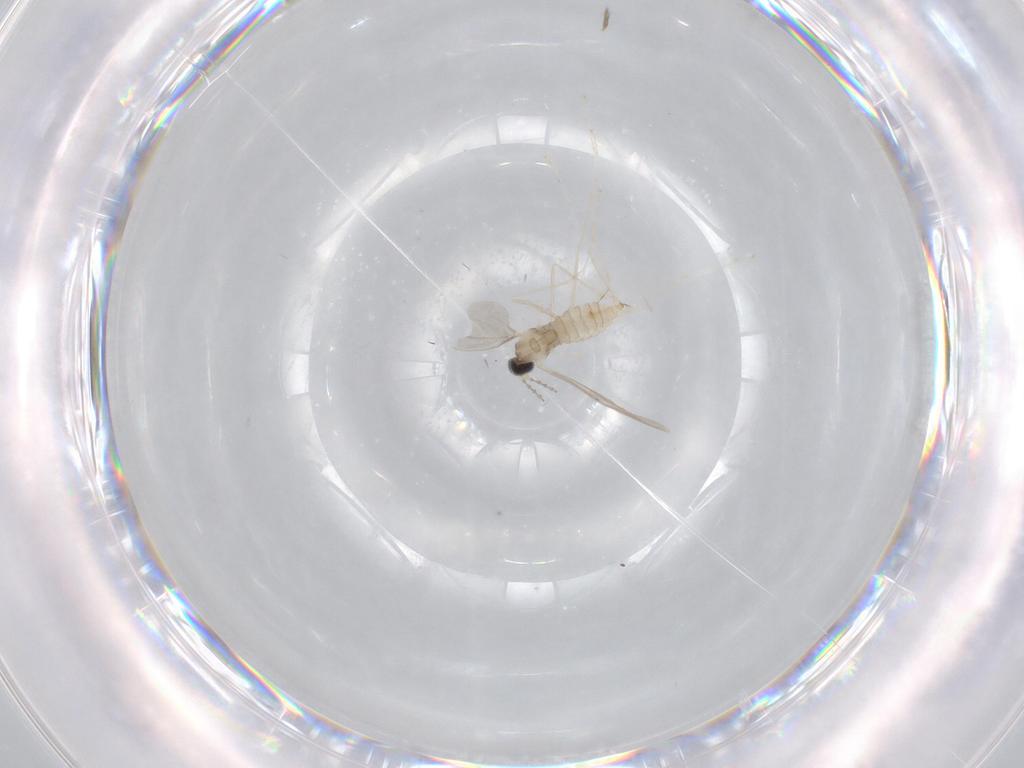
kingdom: Animalia
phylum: Arthropoda
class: Insecta
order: Diptera
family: Cecidomyiidae
